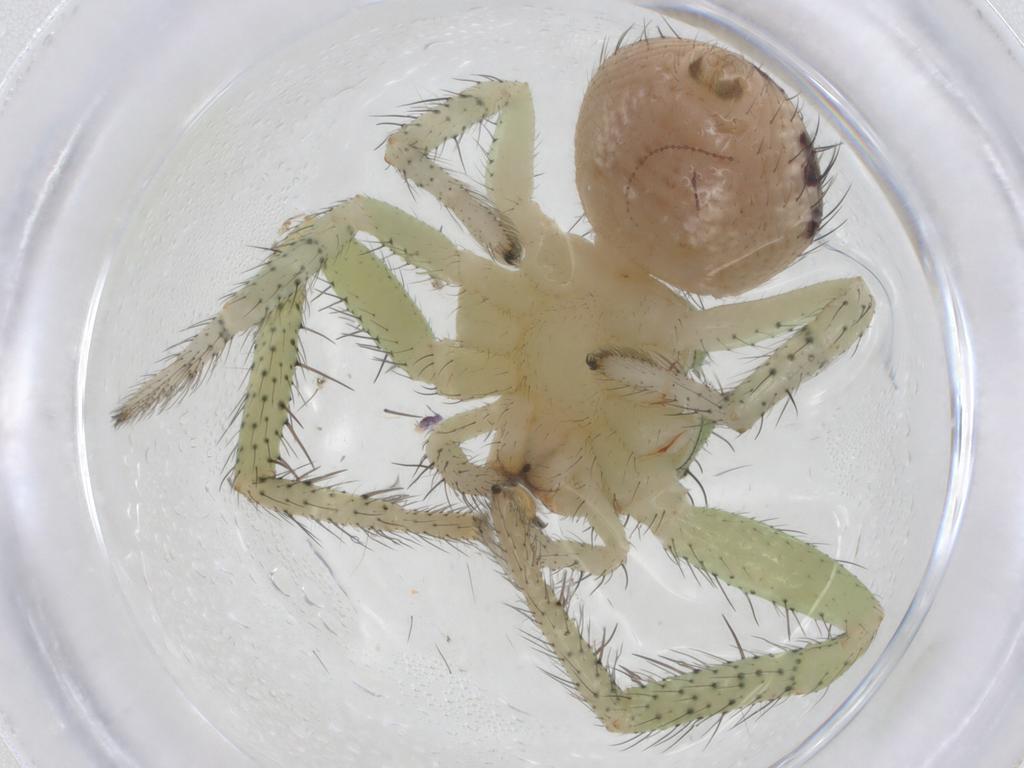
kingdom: Animalia
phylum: Arthropoda
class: Arachnida
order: Araneae
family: Thomisidae
